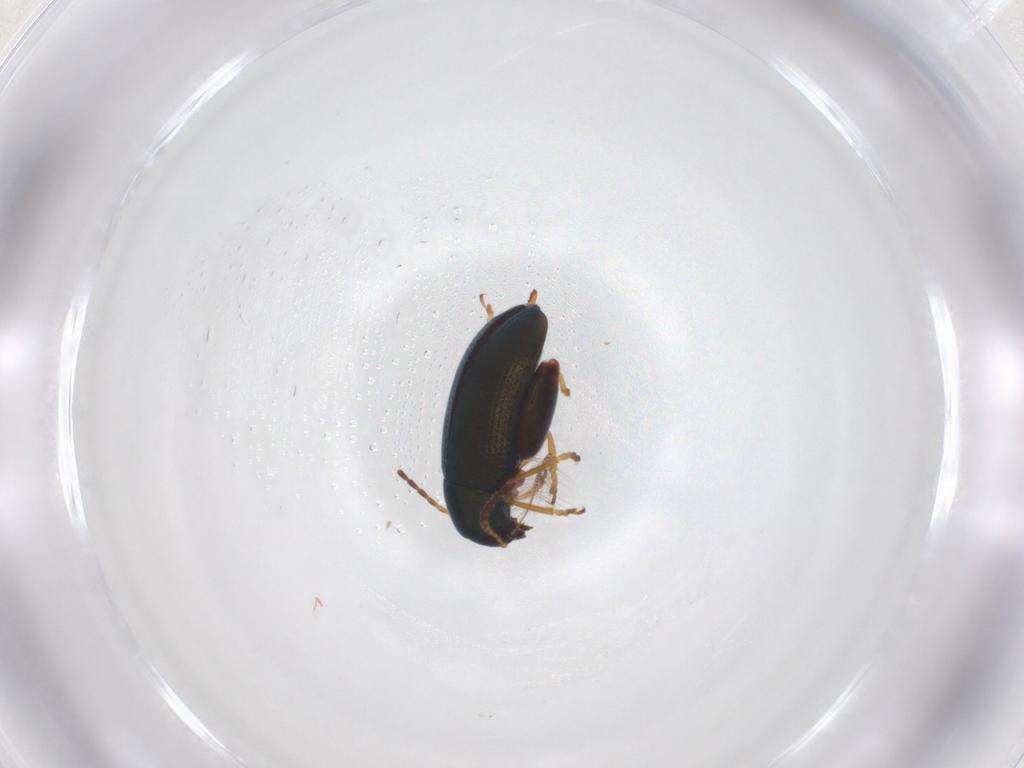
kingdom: Animalia
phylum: Arthropoda
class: Insecta
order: Coleoptera
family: Chrysomelidae
